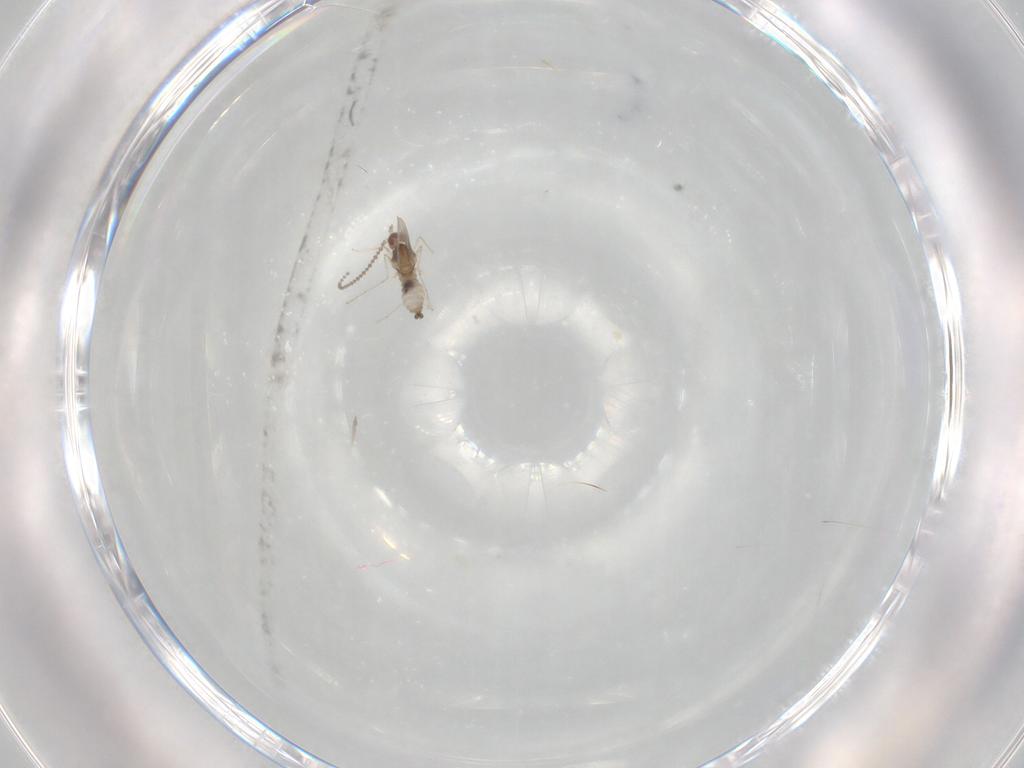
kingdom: Animalia
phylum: Arthropoda
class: Insecta
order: Diptera
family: Cecidomyiidae
